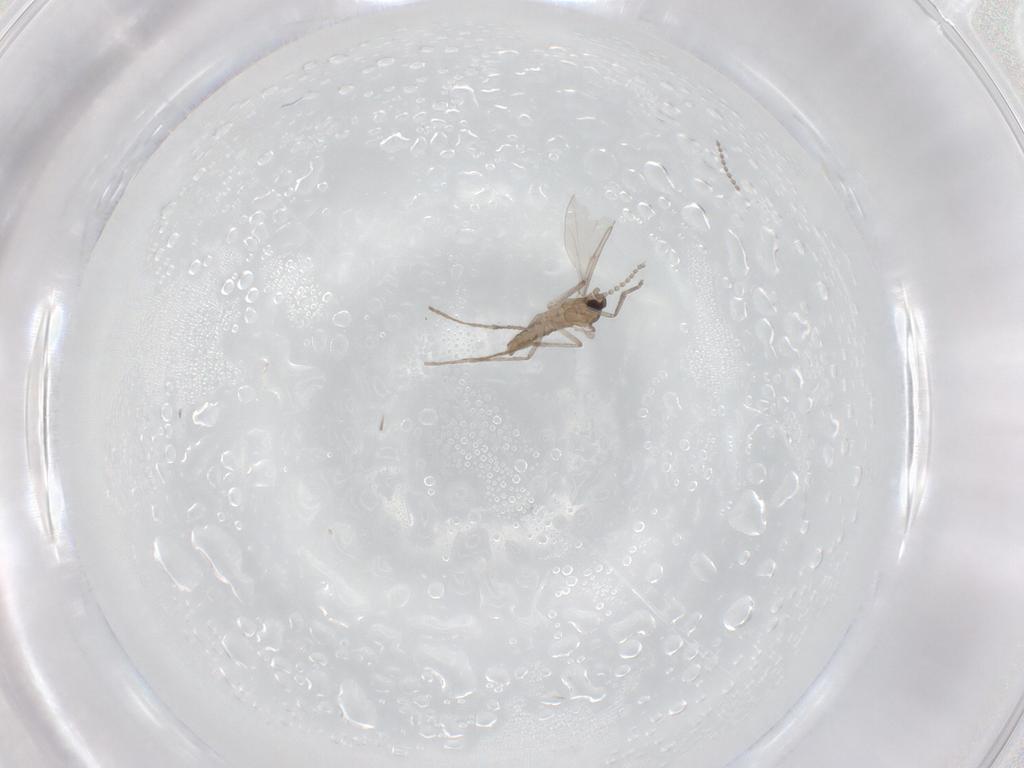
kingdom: Animalia
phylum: Arthropoda
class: Insecta
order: Diptera
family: Cecidomyiidae
